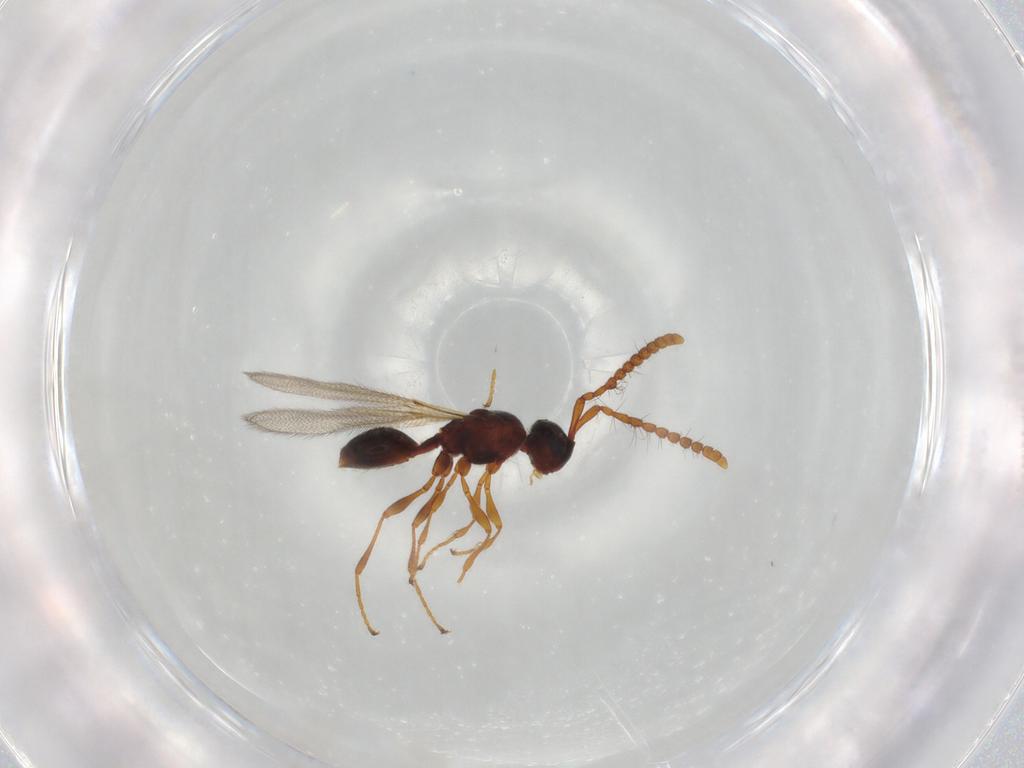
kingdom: Animalia
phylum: Arthropoda
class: Insecta
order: Hymenoptera
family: Diapriidae
